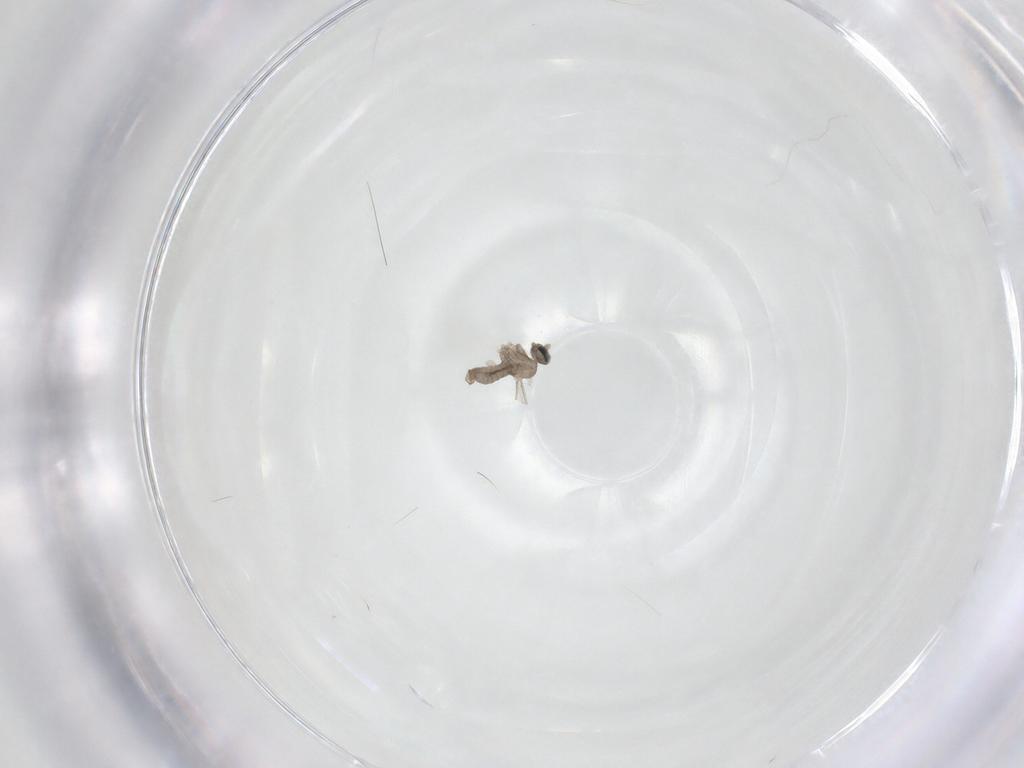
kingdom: Animalia
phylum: Arthropoda
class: Insecta
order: Diptera
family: Cecidomyiidae
